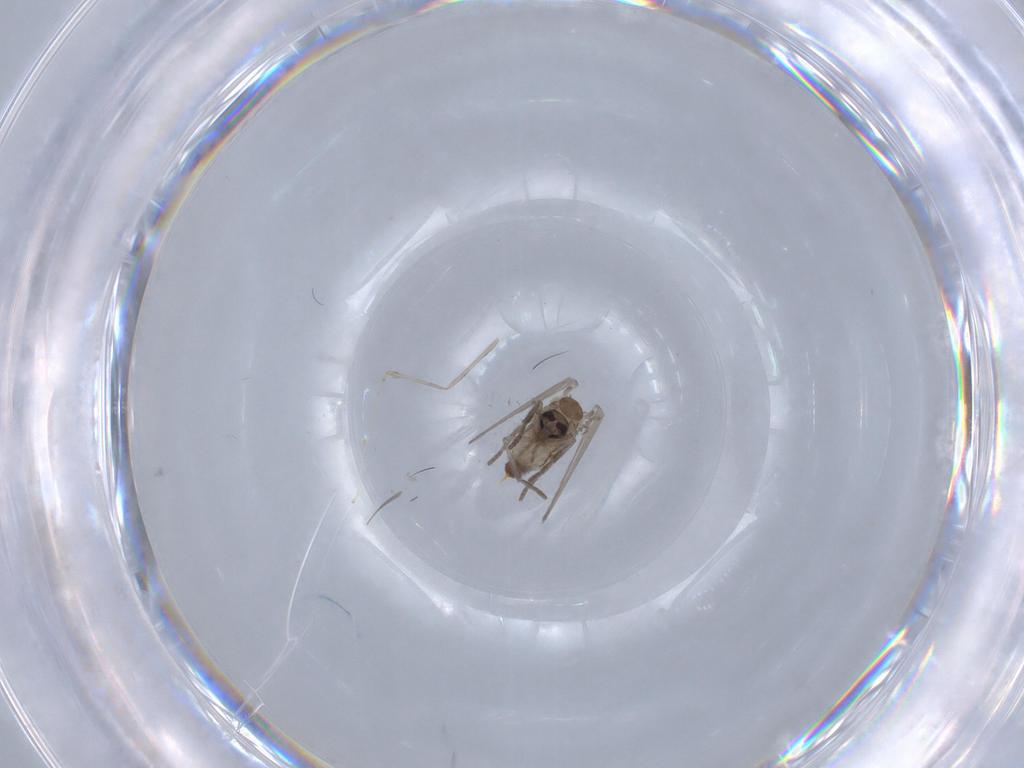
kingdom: Animalia
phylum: Arthropoda
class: Insecta
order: Diptera
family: Psychodidae
